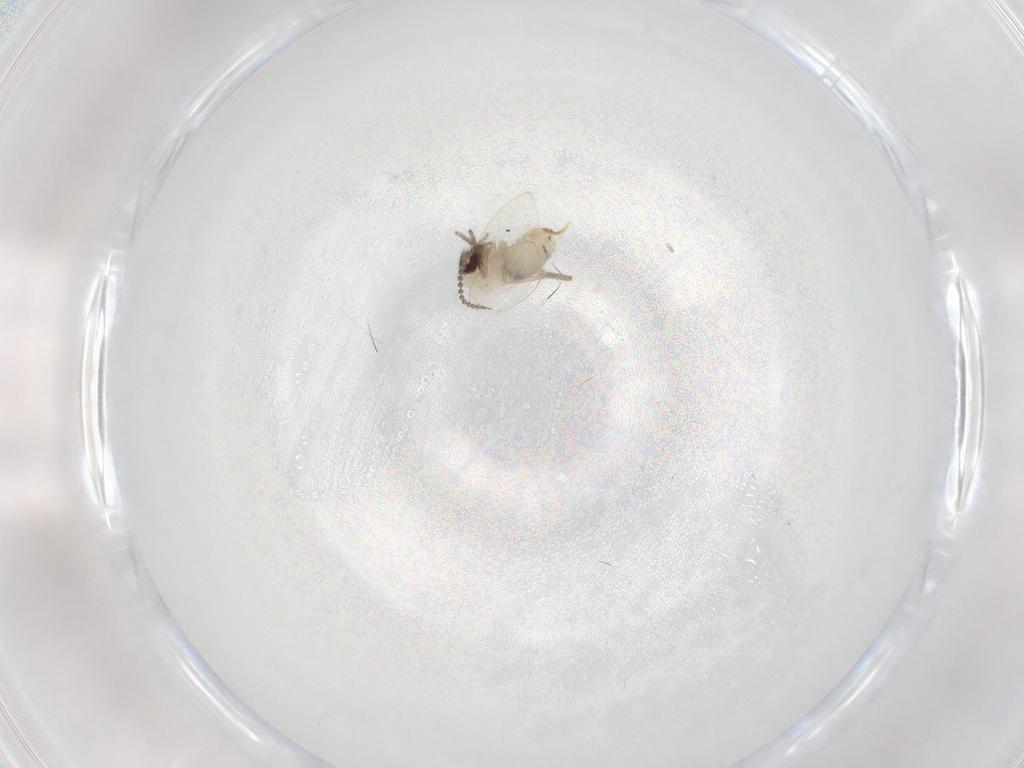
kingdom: Animalia
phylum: Arthropoda
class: Insecta
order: Diptera
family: Psychodidae
